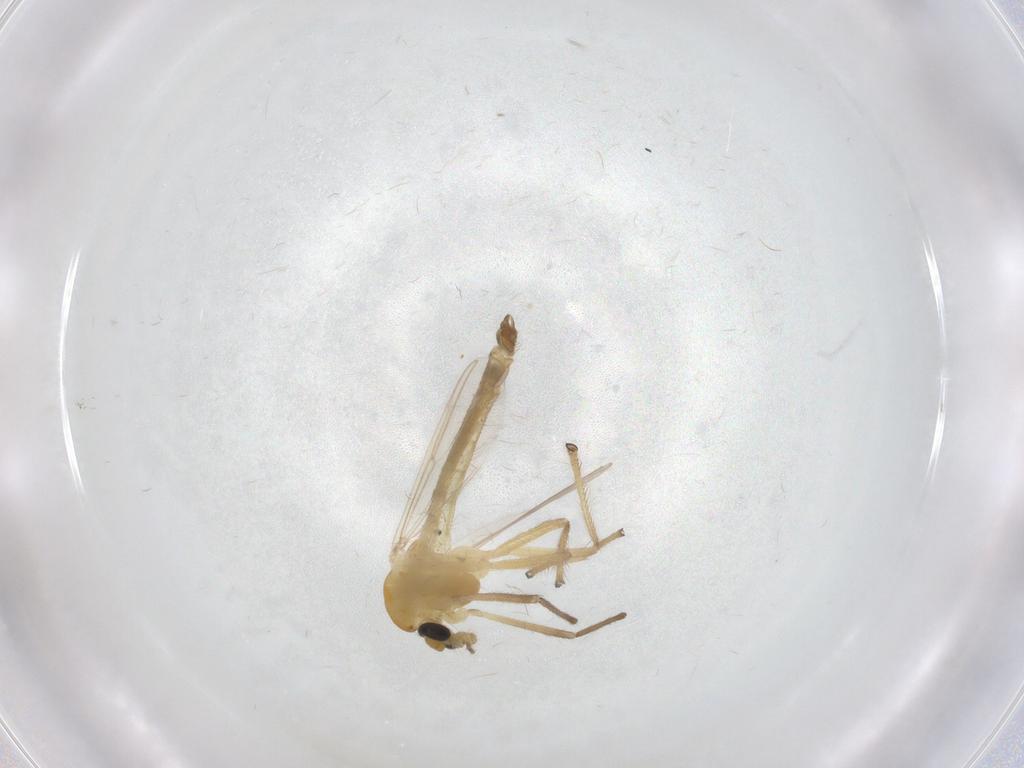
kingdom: Animalia
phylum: Arthropoda
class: Insecta
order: Diptera
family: Chironomidae
